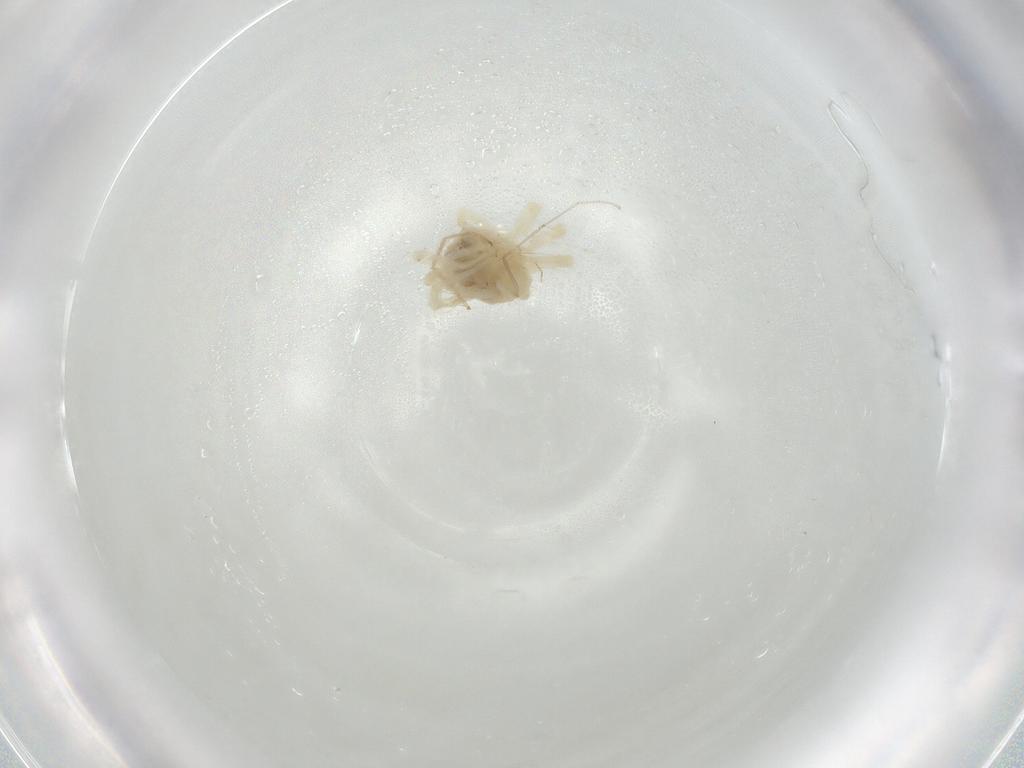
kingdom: Animalia
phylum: Arthropoda
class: Arachnida
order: Trombidiformes
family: Anystidae
